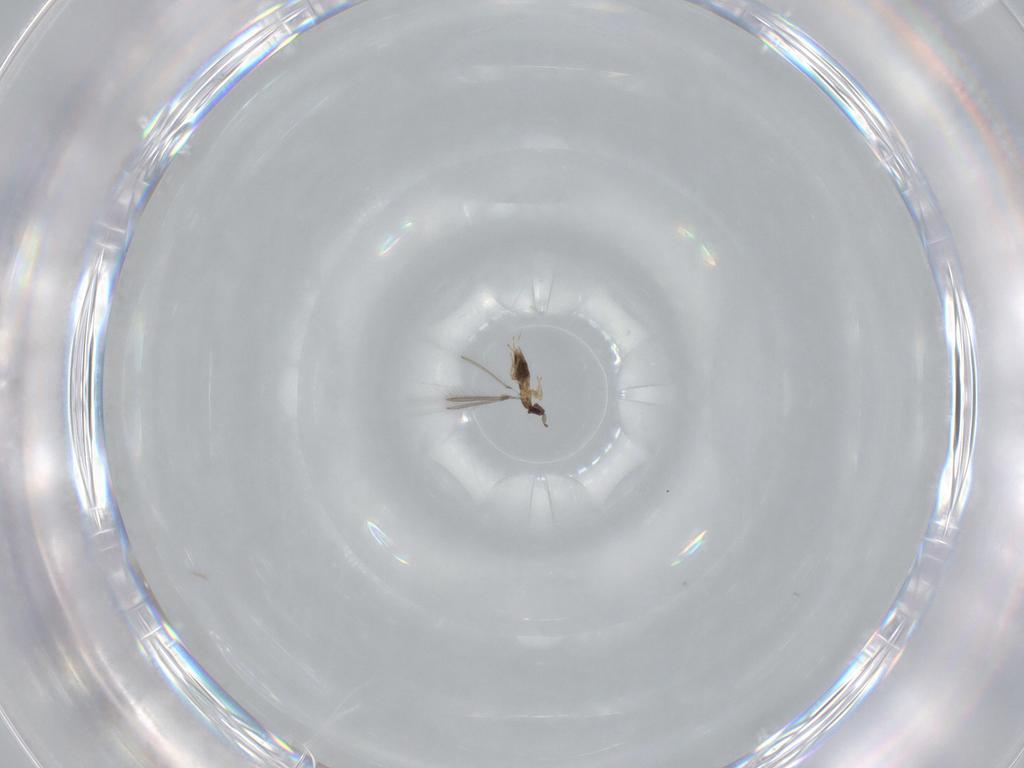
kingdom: Animalia
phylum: Arthropoda
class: Insecta
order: Hymenoptera
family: Mymaridae
